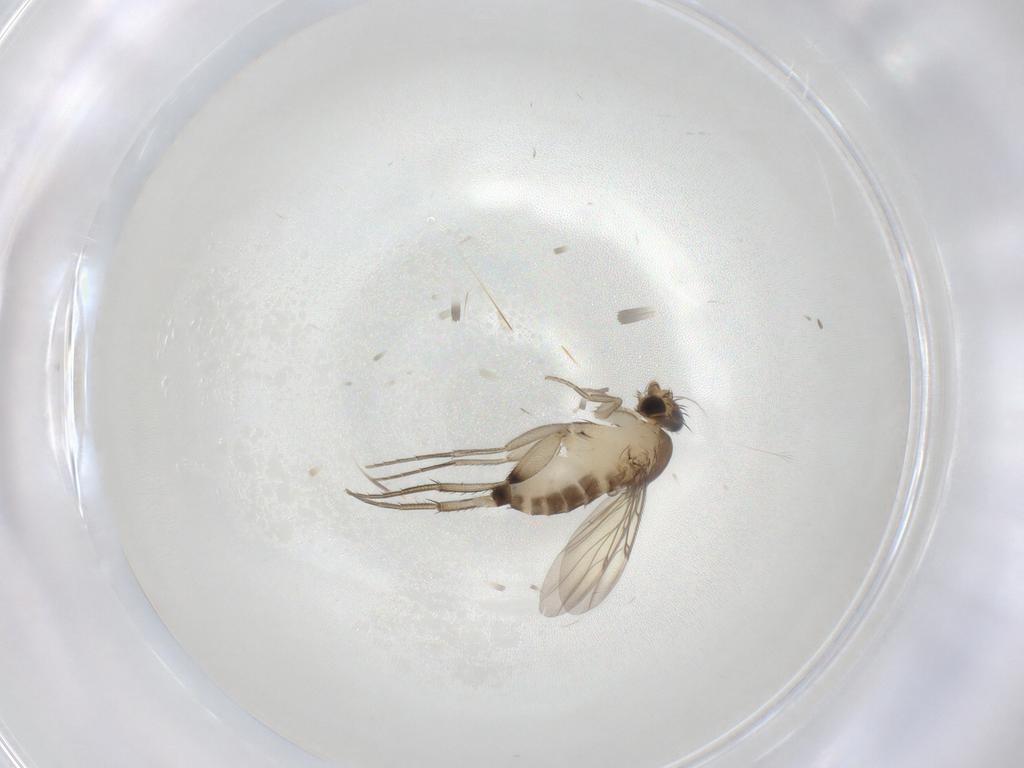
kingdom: Animalia
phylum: Arthropoda
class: Insecta
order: Diptera
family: Phoridae
